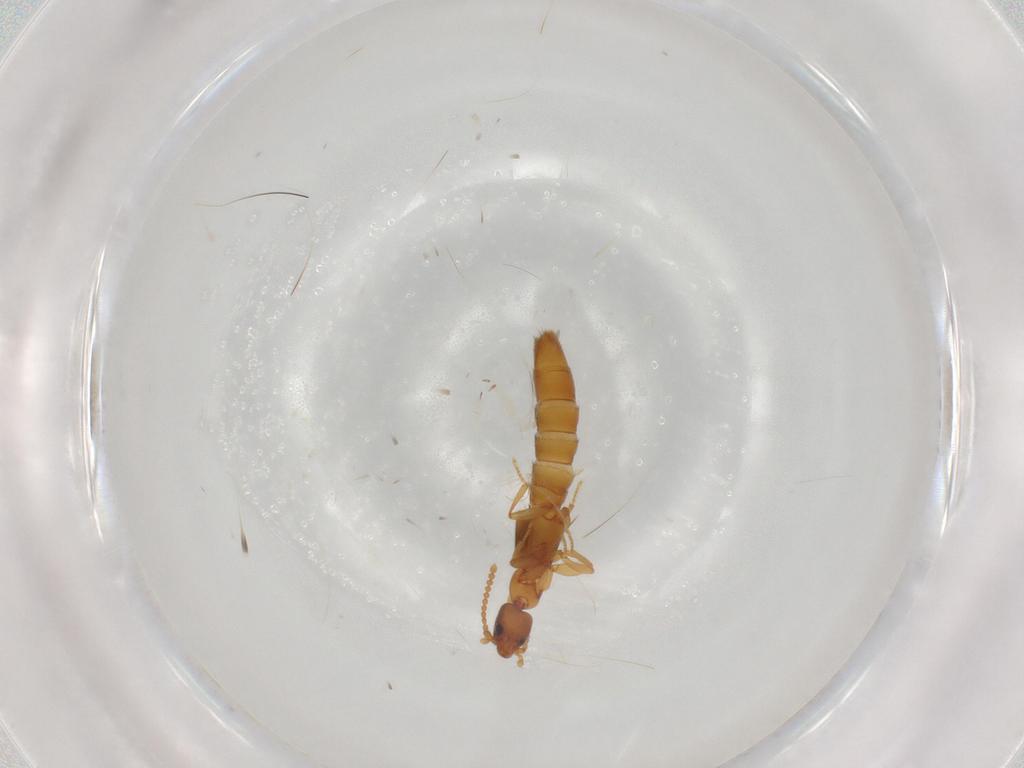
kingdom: Animalia
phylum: Arthropoda
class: Insecta
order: Coleoptera
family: Staphylinidae
